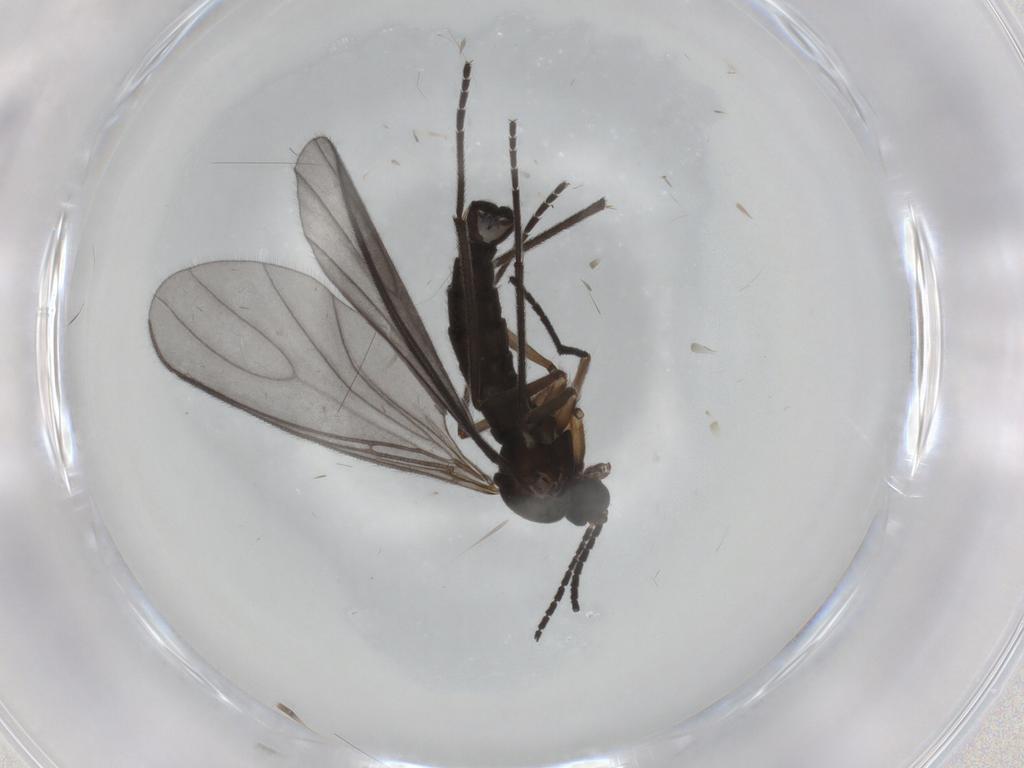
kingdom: Animalia
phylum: Arthropoda
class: Insecta
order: Diptera
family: Sciaridae
